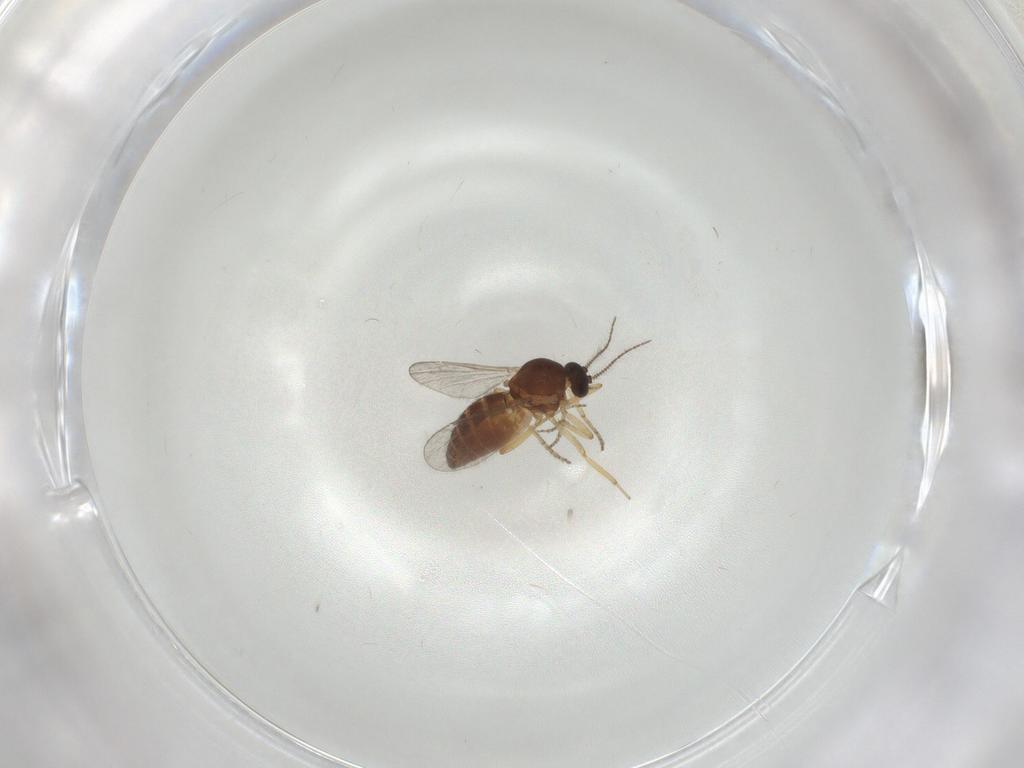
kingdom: Animalia
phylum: Arthropoda
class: Insecta
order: Diptera
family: Ceratopogonidae
